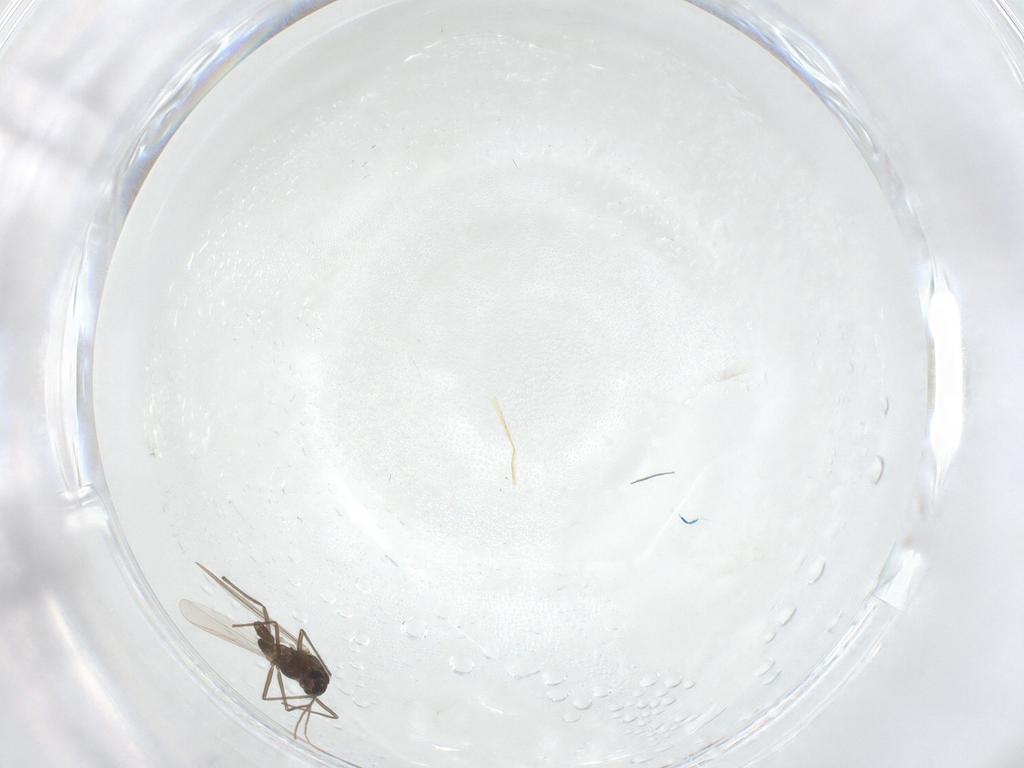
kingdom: Animalia
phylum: Arthropoda
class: Insecta
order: Diptera
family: Chironomidae
